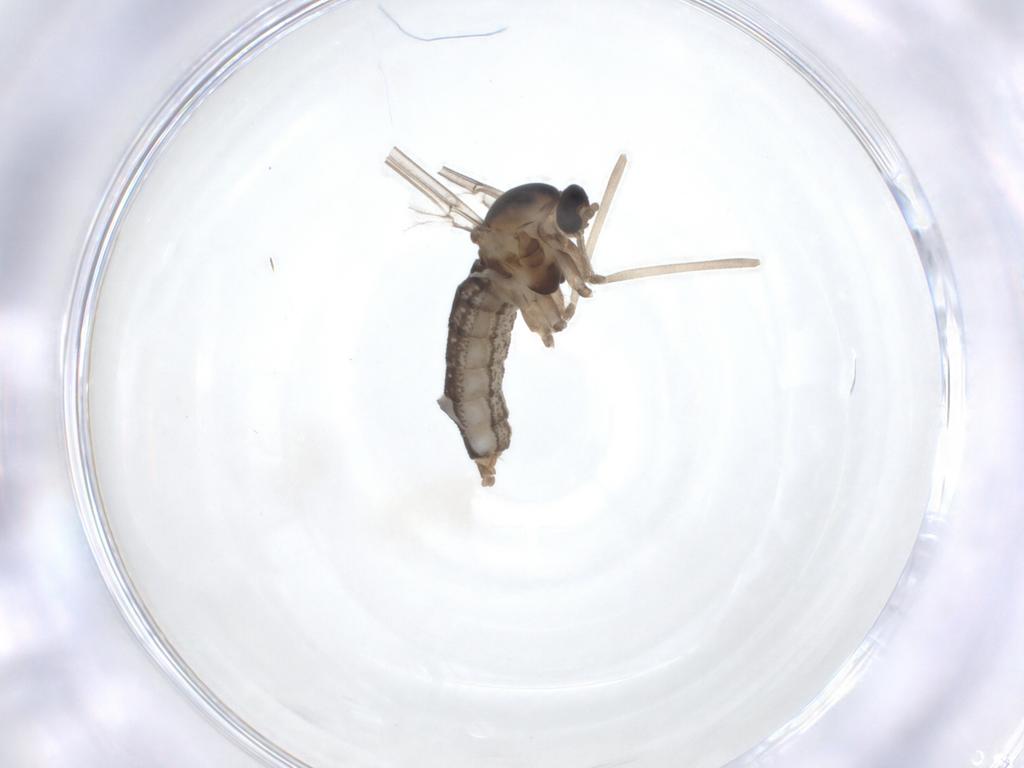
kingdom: Animalia
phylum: Arthropoda
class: Insecta
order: Diptera
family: Cecidomyiidae
